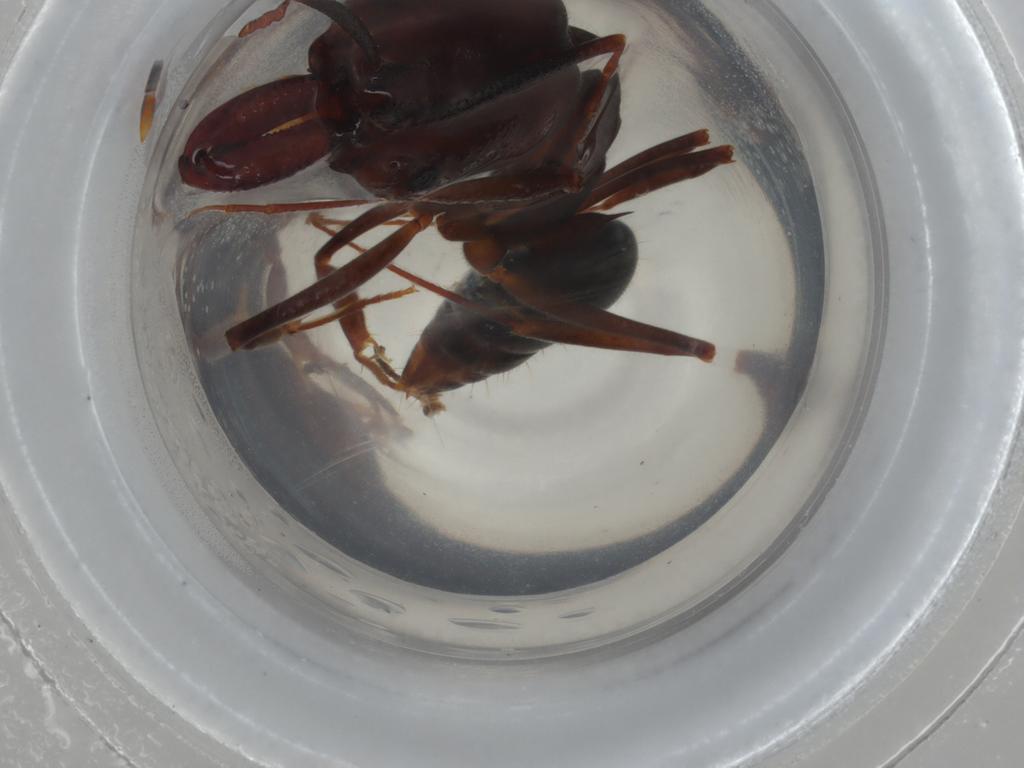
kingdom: Animalia
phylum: Arthropoda
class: Insecta
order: Hymenoptera
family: Formicidae
